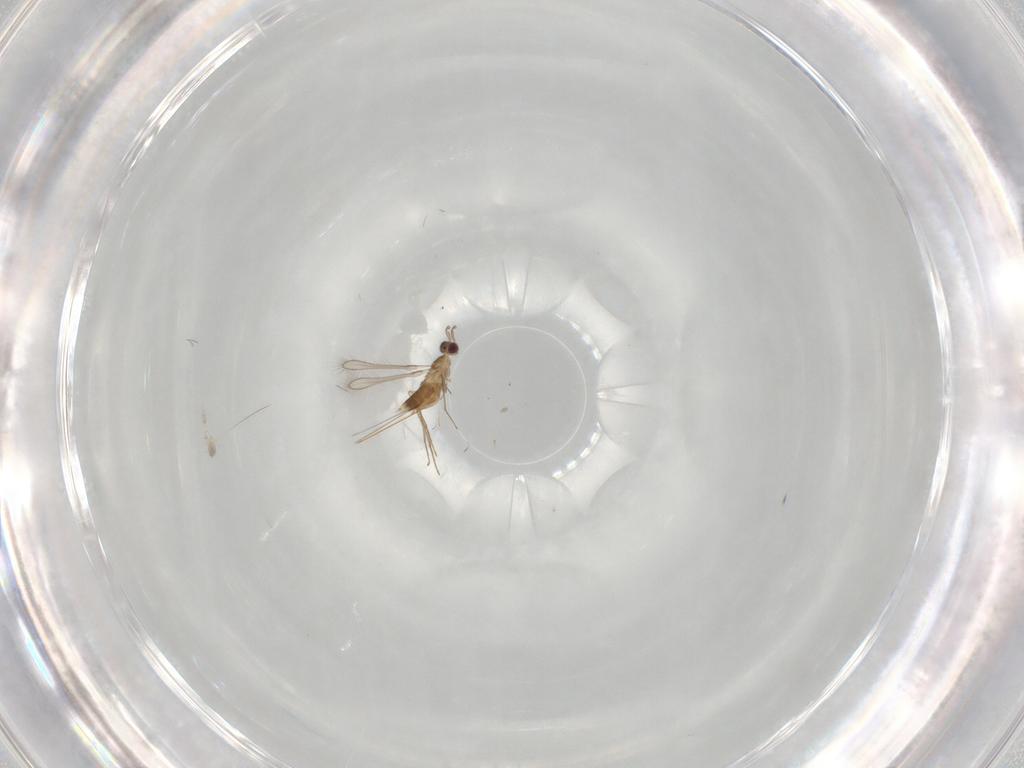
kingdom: Animalia
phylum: Arthropoda
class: Insecta
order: Hymenoptera
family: Mymaridae
